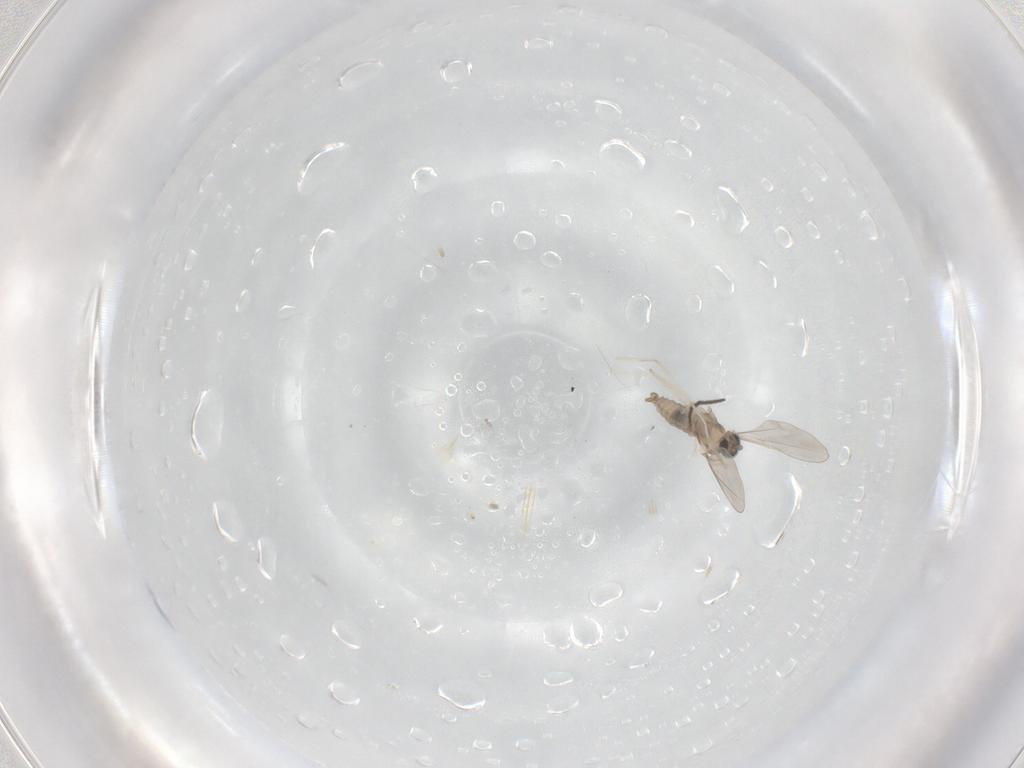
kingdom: Animalia
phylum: Arthropoda
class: Insecta
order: Diptera
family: Chironomidae
